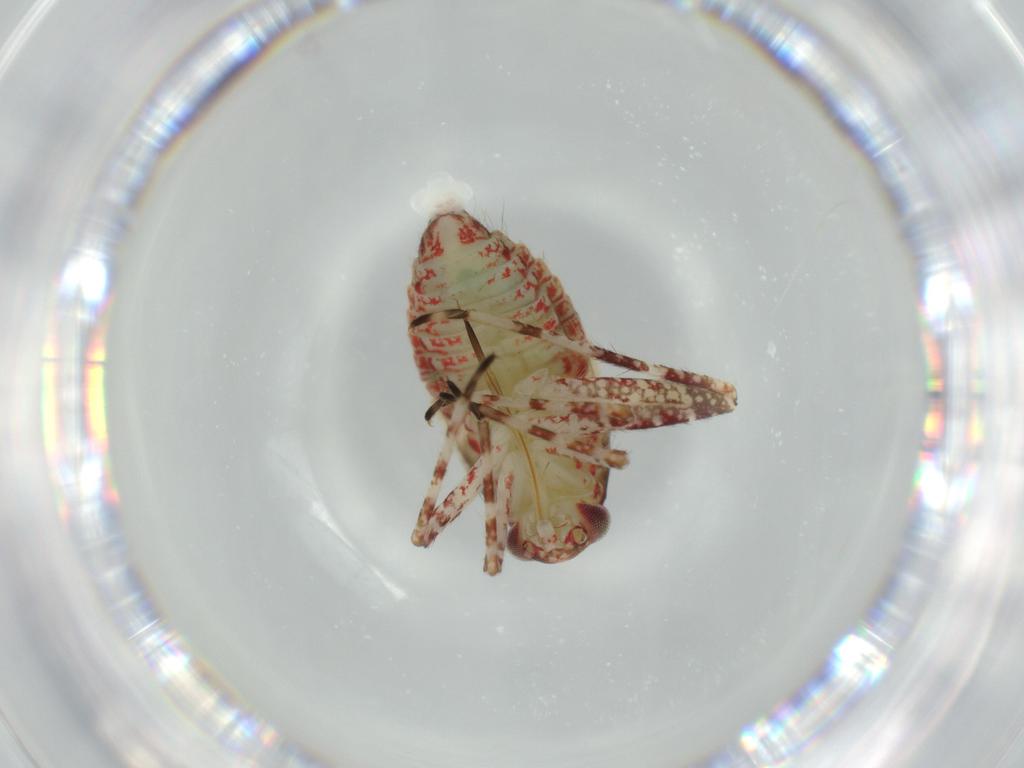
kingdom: Animalia
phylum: Arthropoda
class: Insecta
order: Hemiptera
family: Miridae
